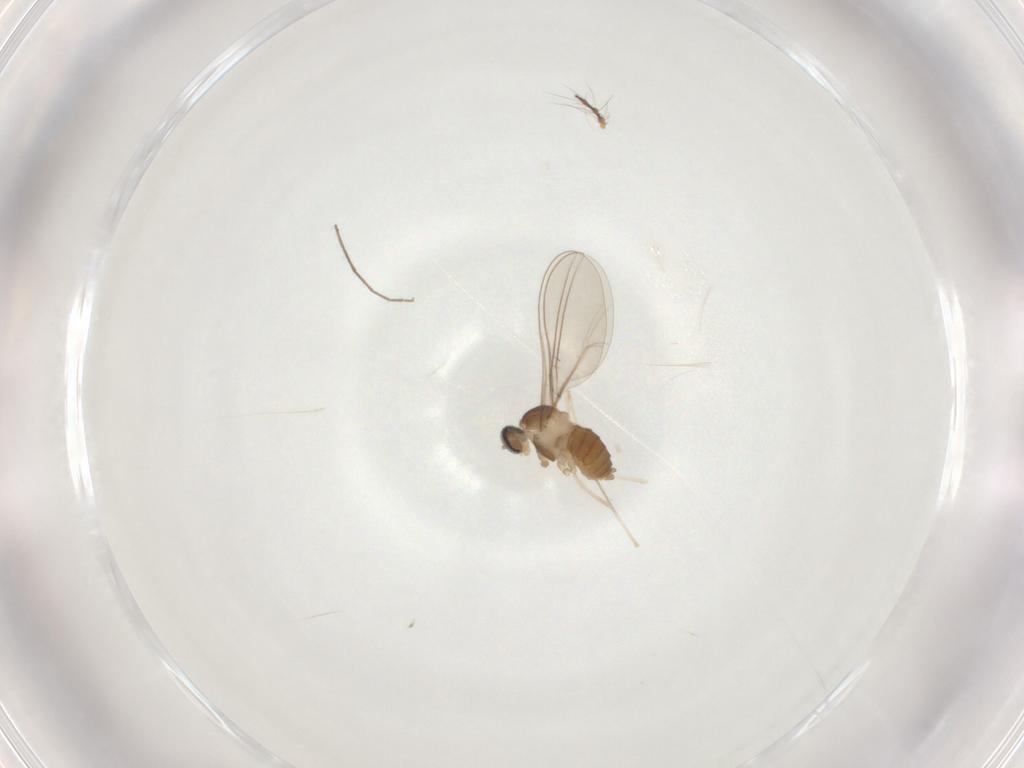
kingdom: Animalia
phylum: Arthropoda
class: Insecta
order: Diptera
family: Cecidomyiidae
